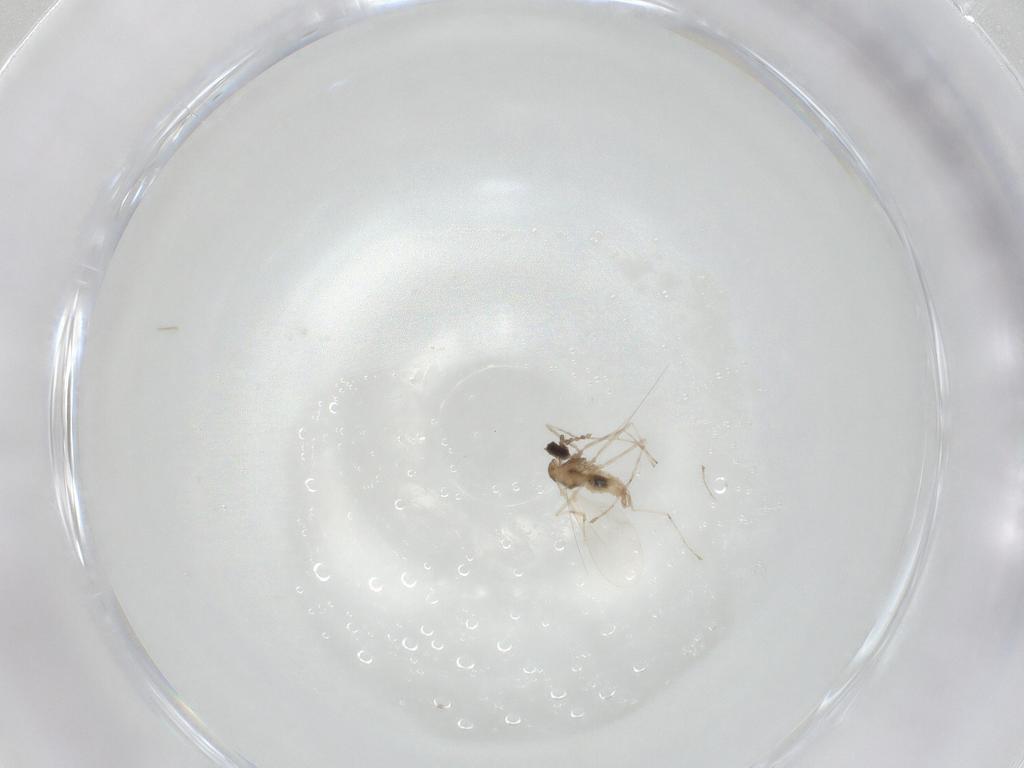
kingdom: Animalia
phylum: Arthropoda
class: Insecta
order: Diptera
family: Cecidomyiidae
